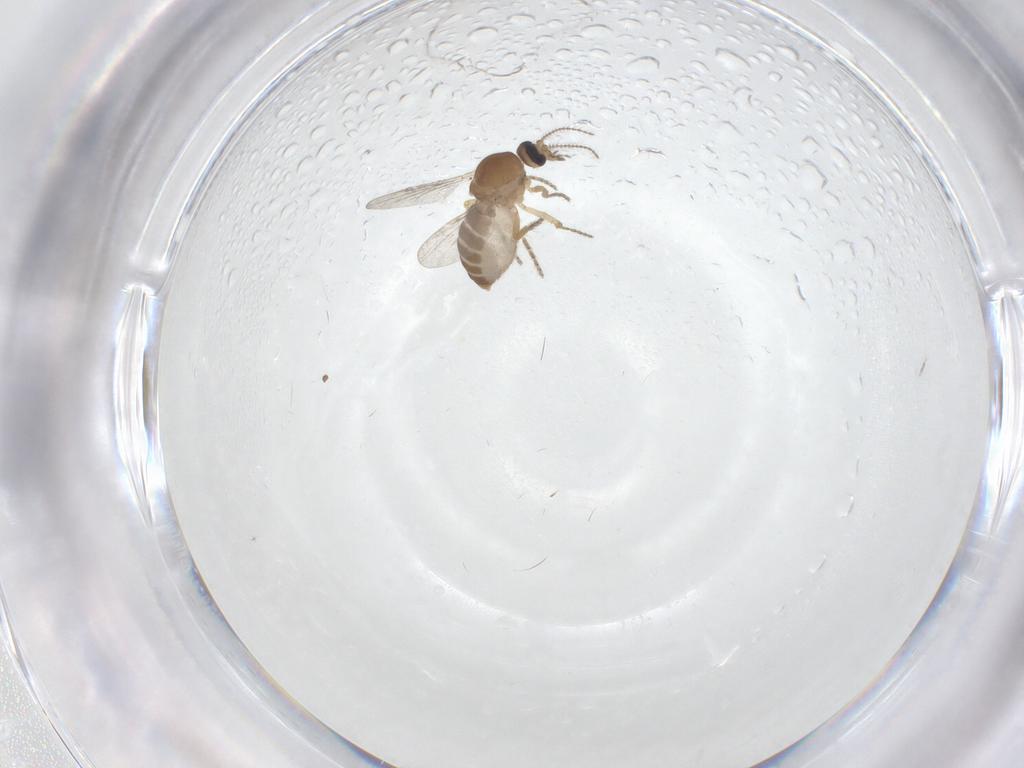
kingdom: Animalia
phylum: Arthropoda
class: Insecta
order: Diptera
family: Ceratopogonidae
